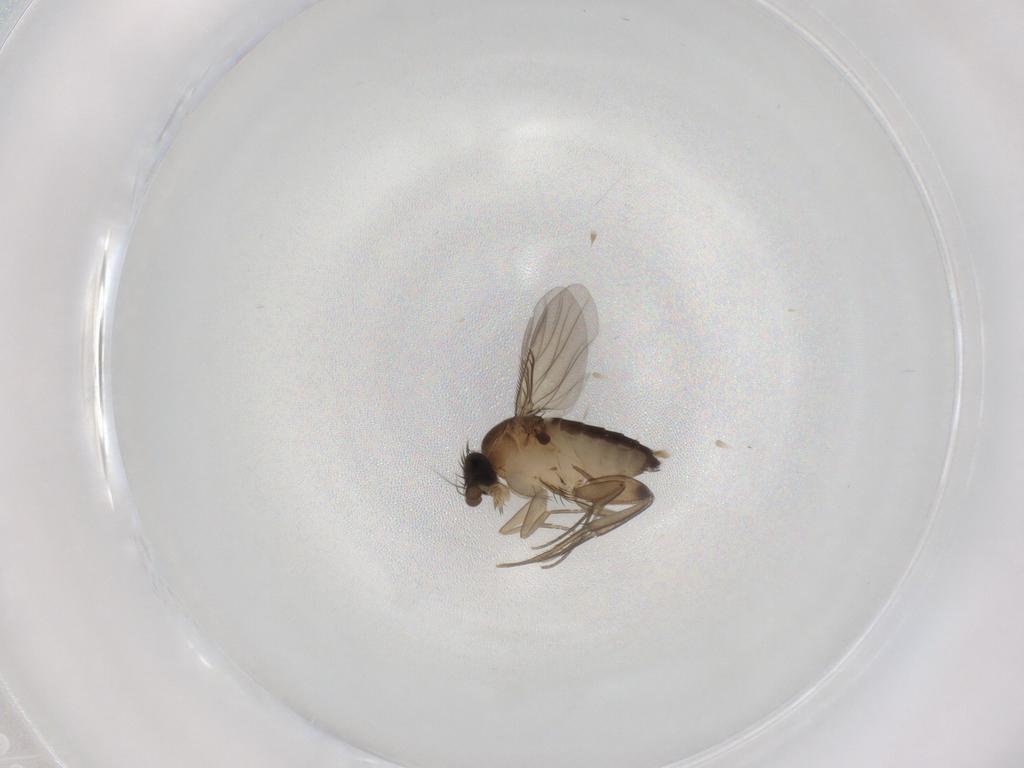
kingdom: Animalia
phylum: Arthropoda
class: Insecta
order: Diptera
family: Phoridae
